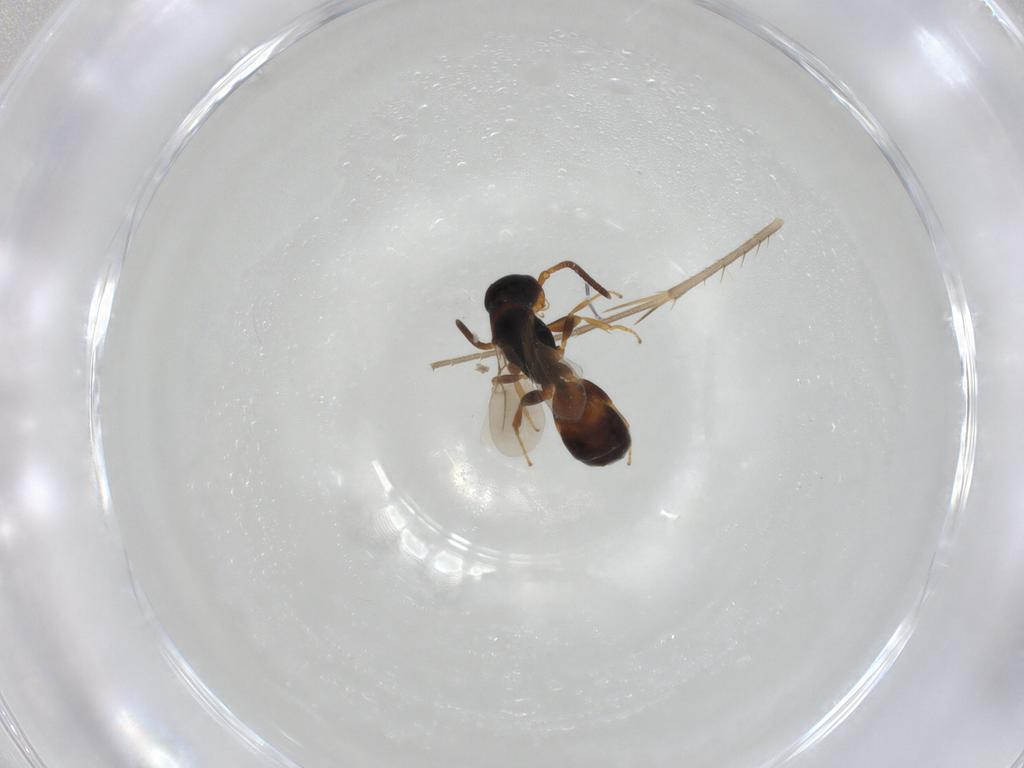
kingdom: Animalia
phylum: Arthropoda
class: Insecta
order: Hymenoptera
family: Bethylidae
